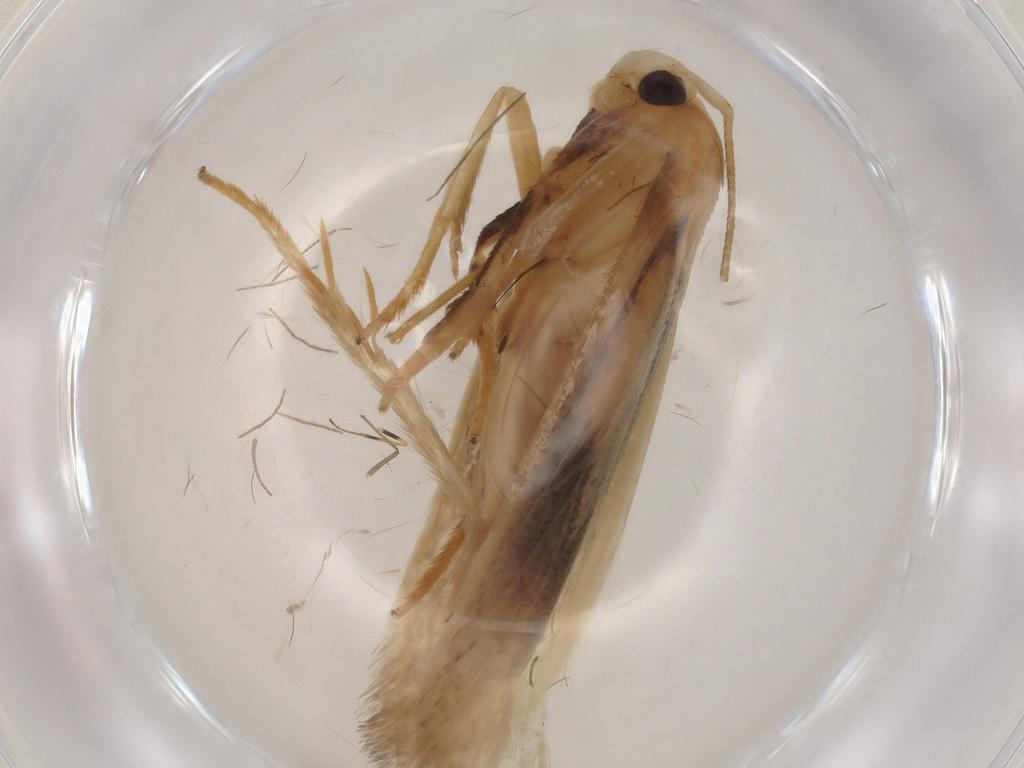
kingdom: Animalia
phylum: Arthropoda
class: Insecta
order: Lepidoptera
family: Geometridae
